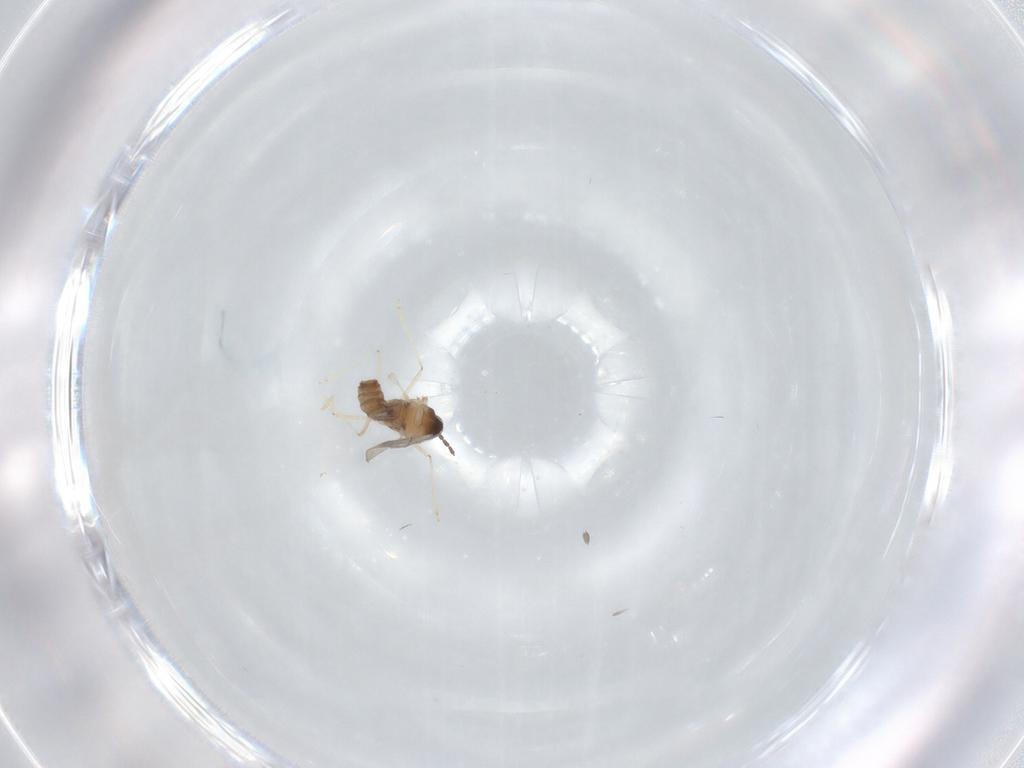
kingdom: Animalia
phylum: Arthropoda
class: Insecta
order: Diptera
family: Cecidomyiidae
